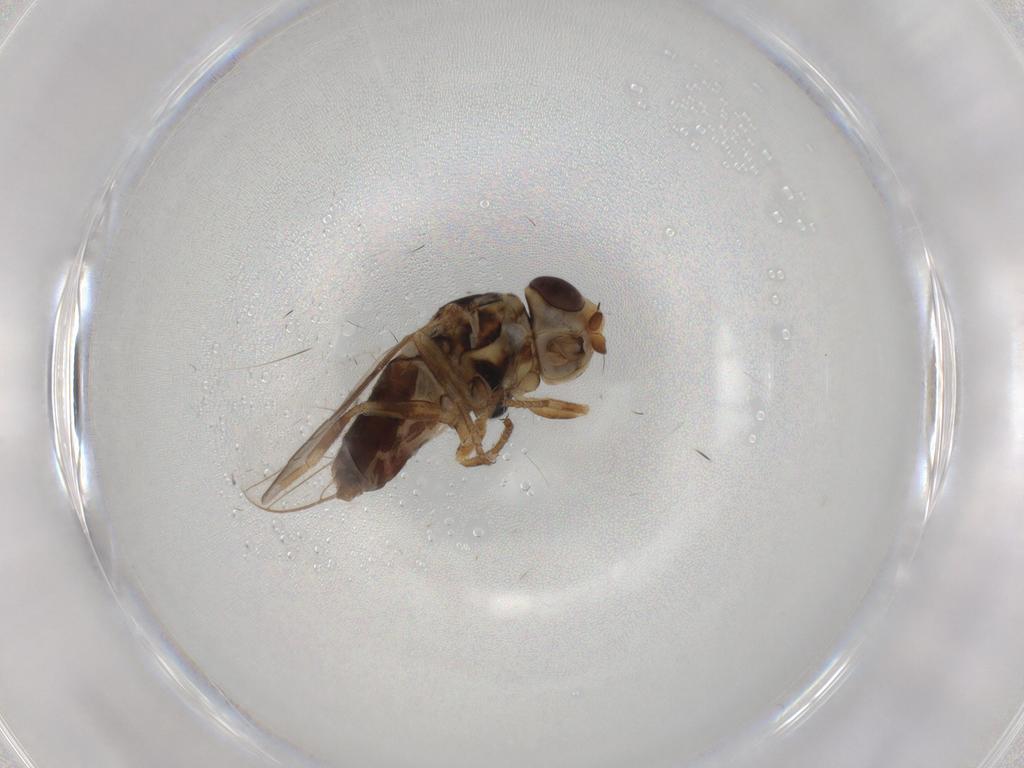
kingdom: Animalia
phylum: Arthropoda
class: Insecta
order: Diptera
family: Chloropidae
